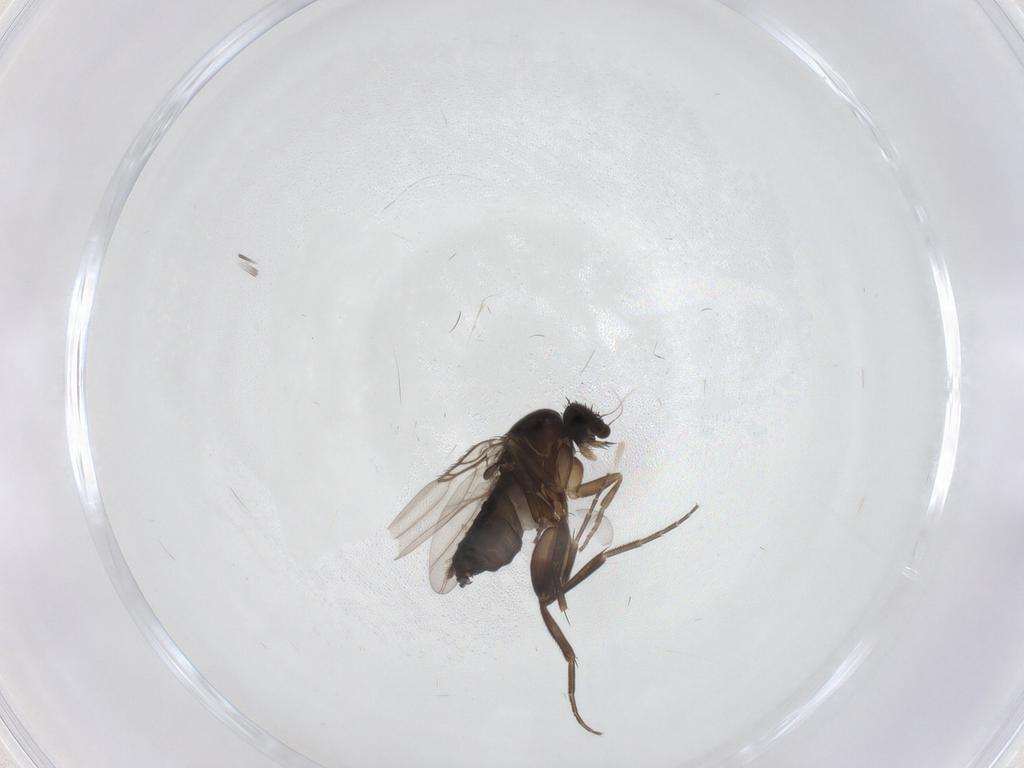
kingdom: Animalia
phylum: Arthropoda
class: Insecta
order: Diptera
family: Phoridae
